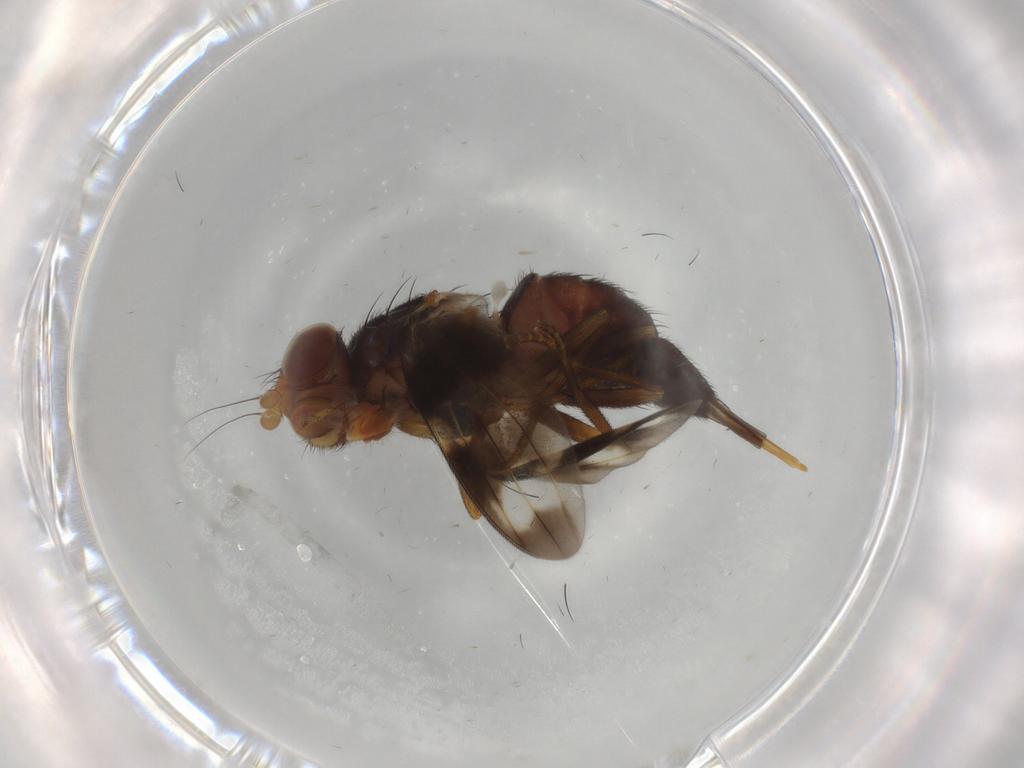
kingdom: Animalia
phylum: Arthropoda
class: Insecta
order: Diptera
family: Ulidiidae
